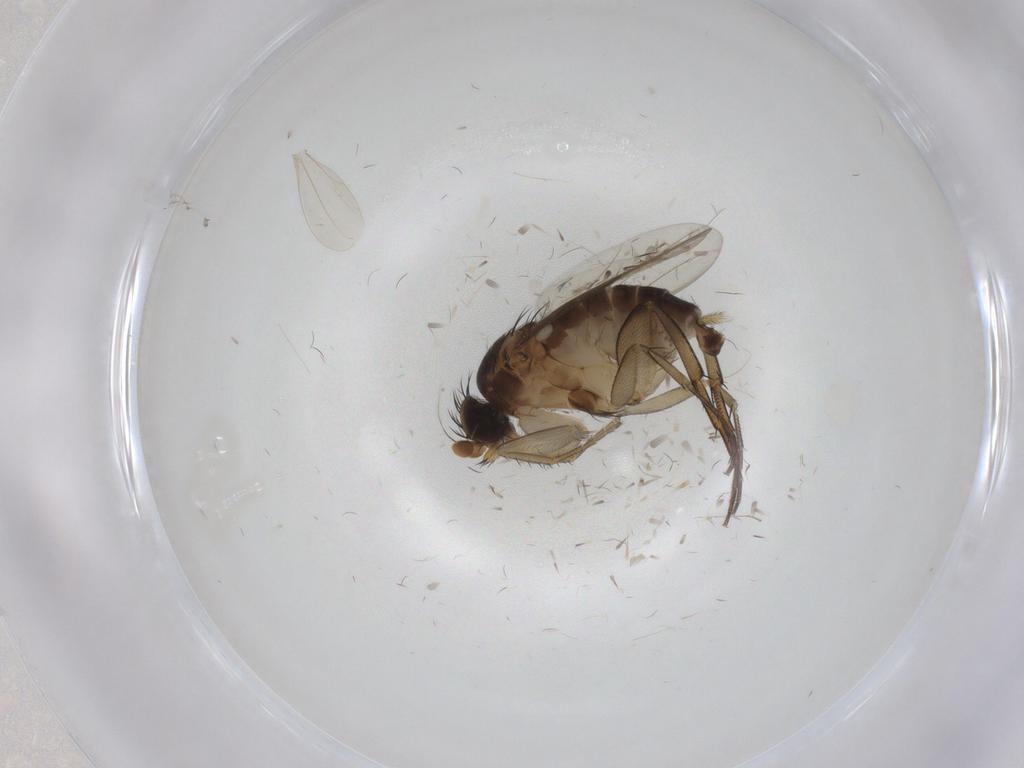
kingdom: Animalia
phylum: Arthropoda
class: Insecta
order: Diptera
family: Phoridae
